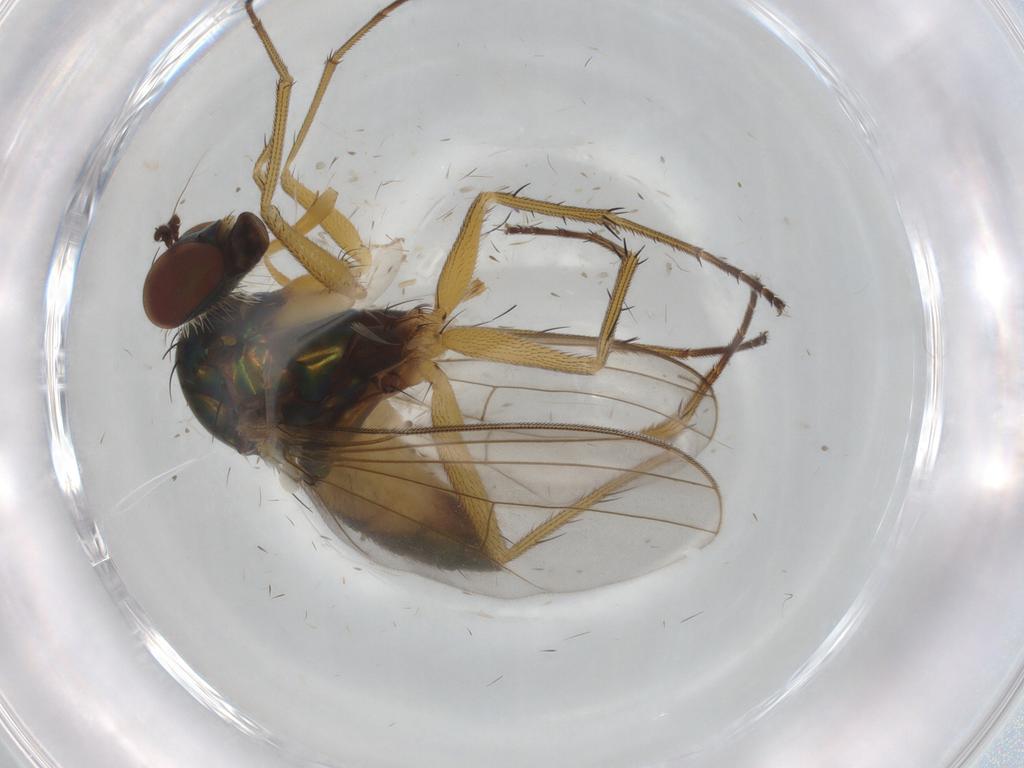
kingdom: Animalia
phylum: Arthropoda
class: Insecta
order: Diptera
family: Stratiomyidae
